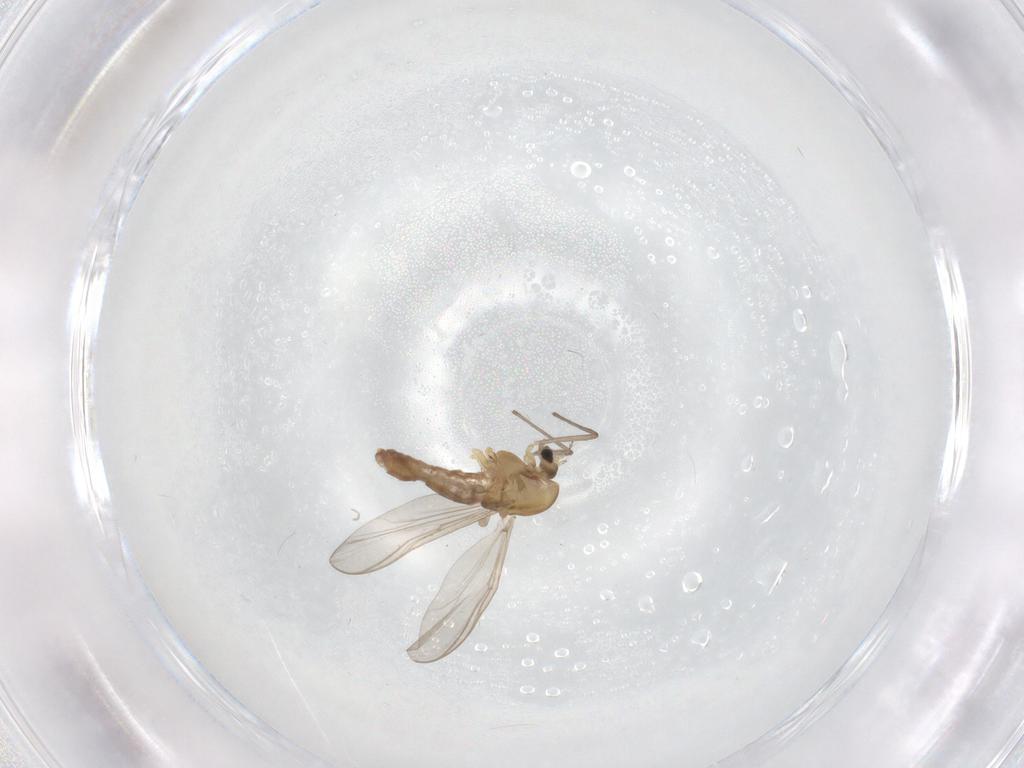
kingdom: Animalia
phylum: Arthropoda
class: Insecta
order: Diptera
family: Chironomidae
